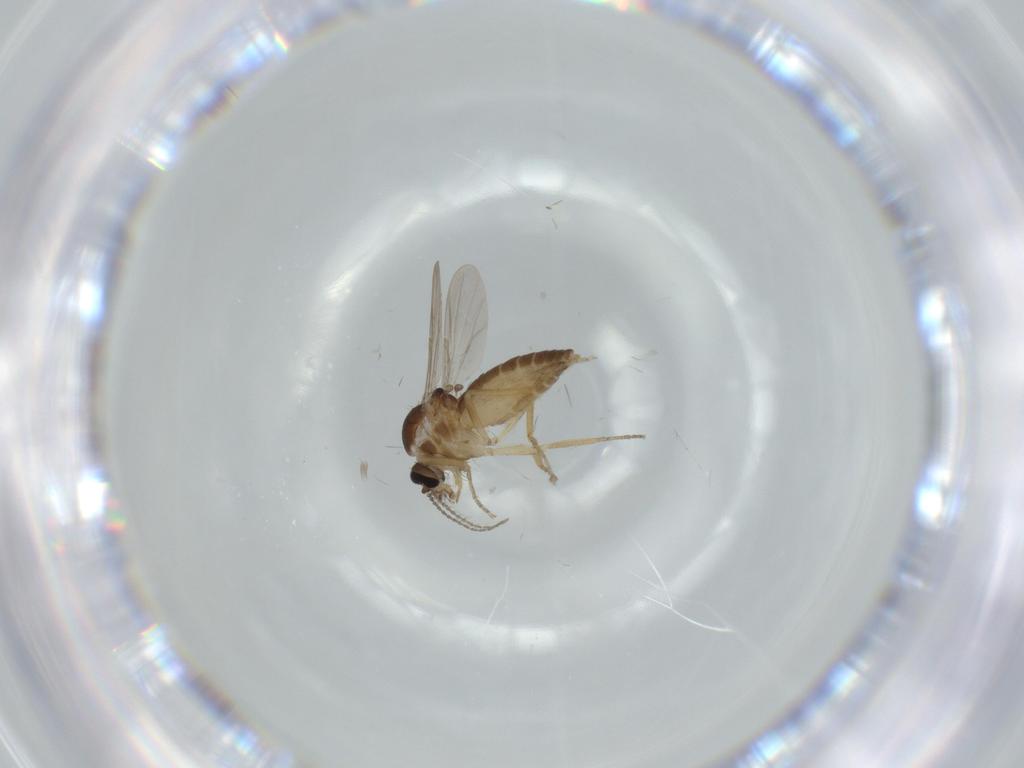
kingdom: Animalia
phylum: Arthropoda
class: Insecta
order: Diptera
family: Ceratopogonidae
